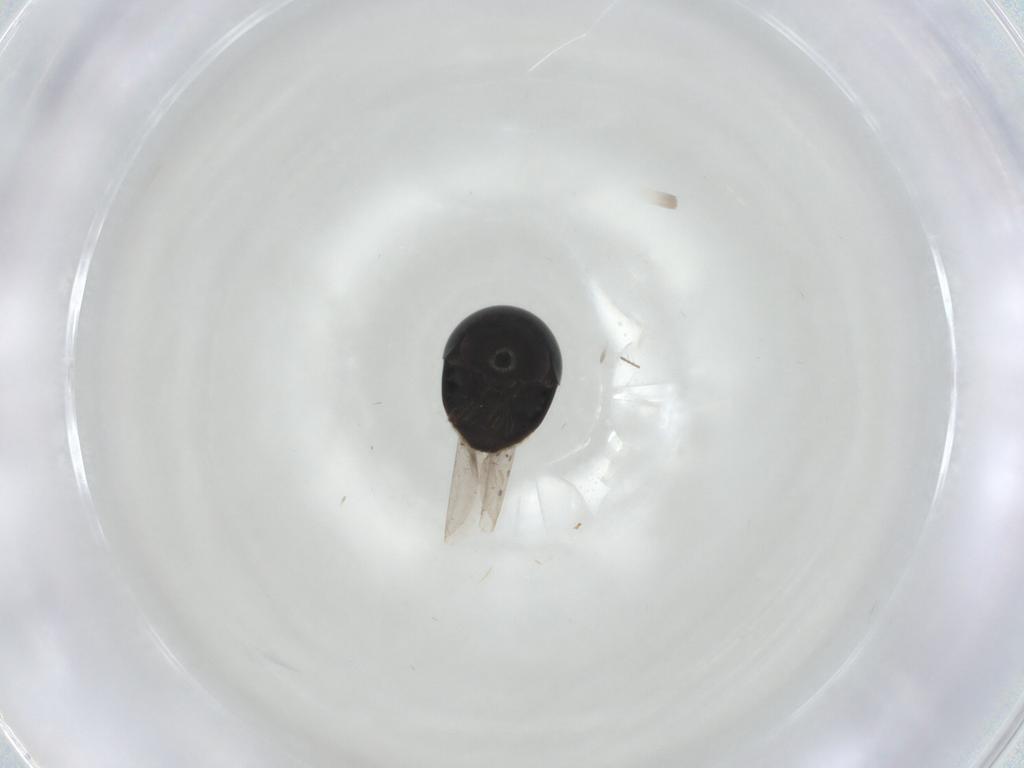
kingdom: Animalia
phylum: Arthropoda
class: Insecta
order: Coleoptera
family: Cybocephalidae
